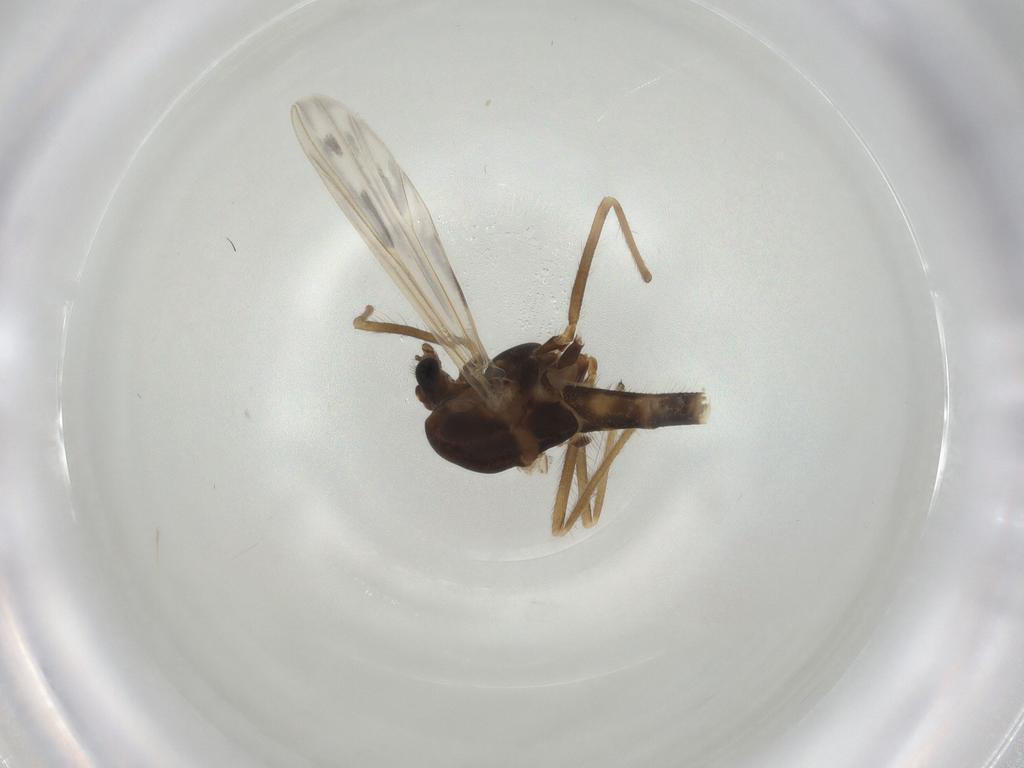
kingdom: Animalia
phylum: Arthropoda
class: Insecta
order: Diptera
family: Chironomidae
